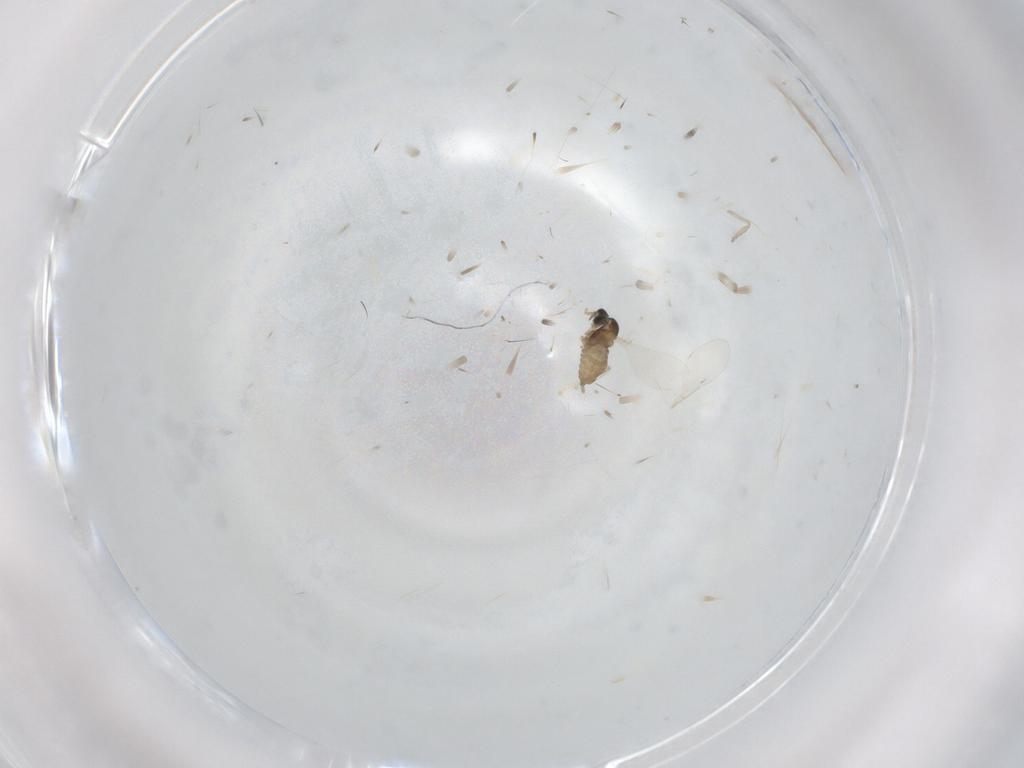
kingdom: Animalia
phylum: Arthropoda
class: Insecta
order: Diptera
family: Cecidomyiidae
